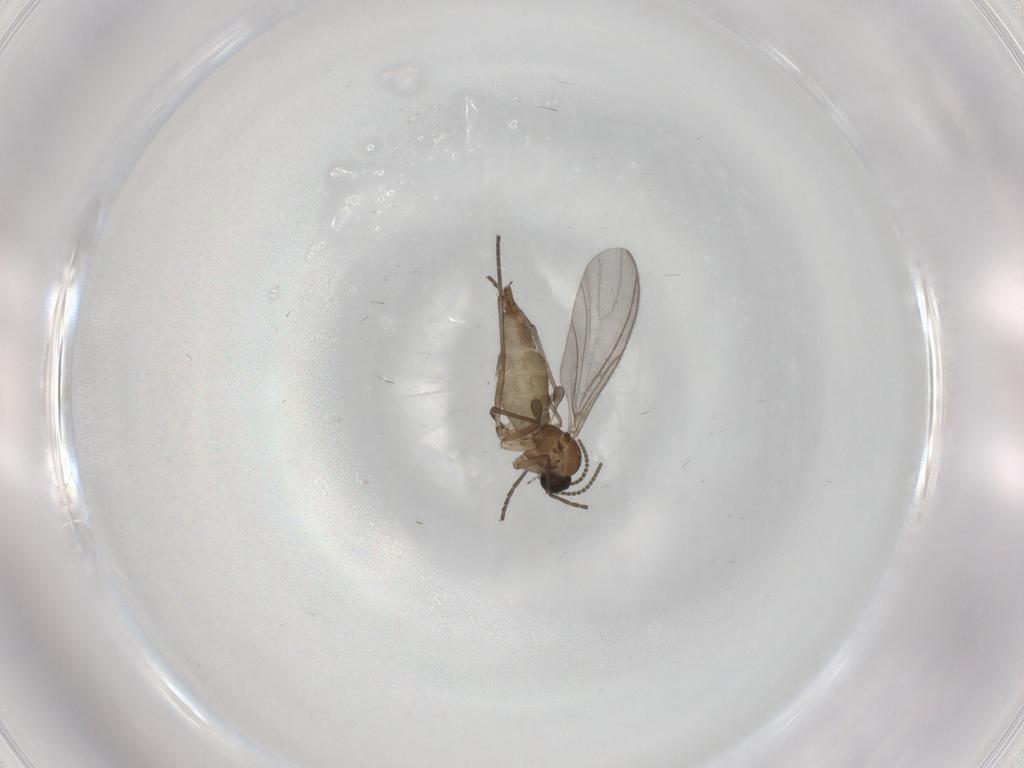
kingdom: Animalia
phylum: Arthropoda
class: Insecta
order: Diptera
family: Sciaridae
